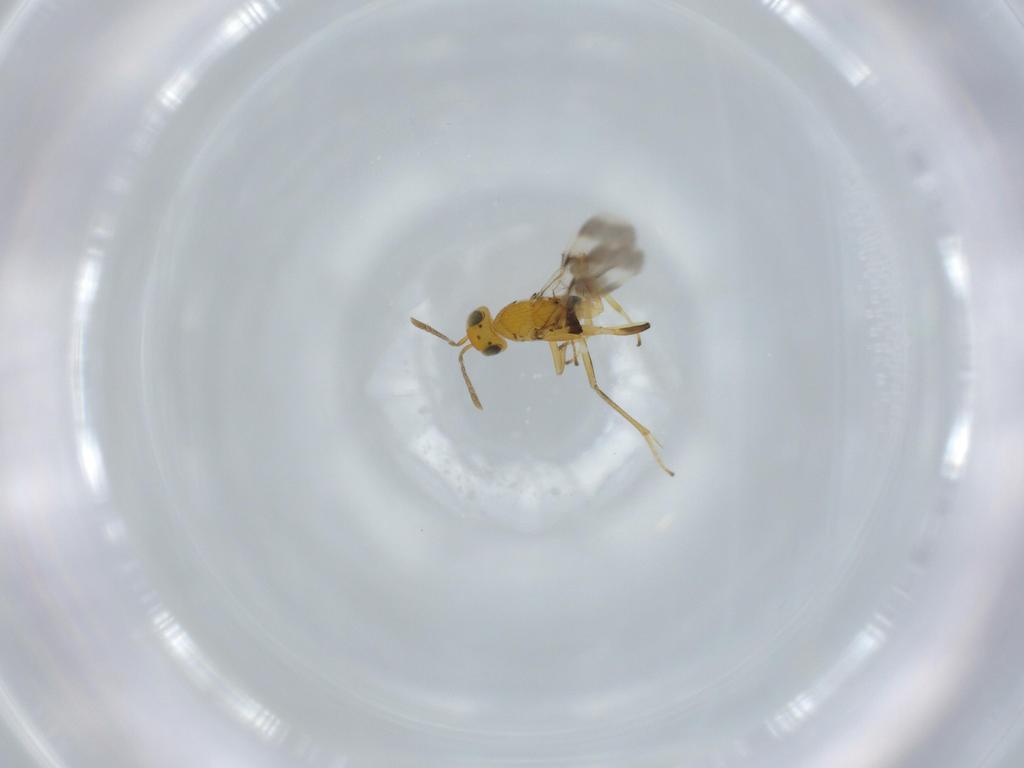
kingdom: Animalia
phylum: Arthropoda
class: Insecta
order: Hymenoptera
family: Encyrtidae
